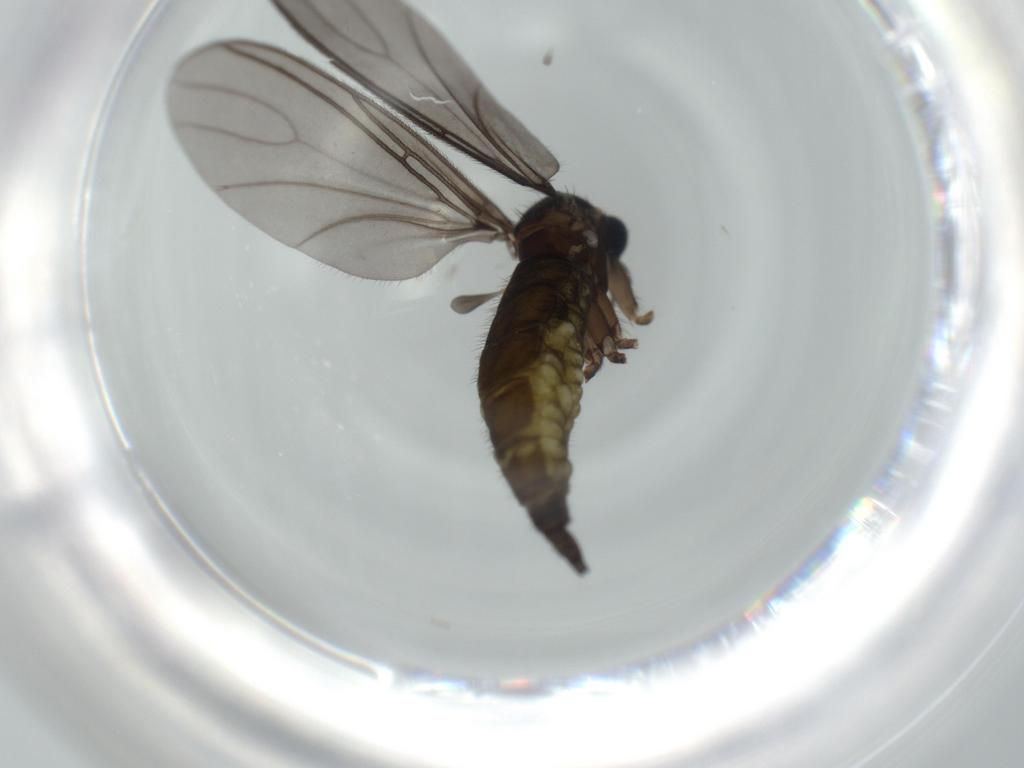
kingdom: Animalia
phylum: Arthropoda
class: Insecta
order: Diptera
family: Sciaridae
